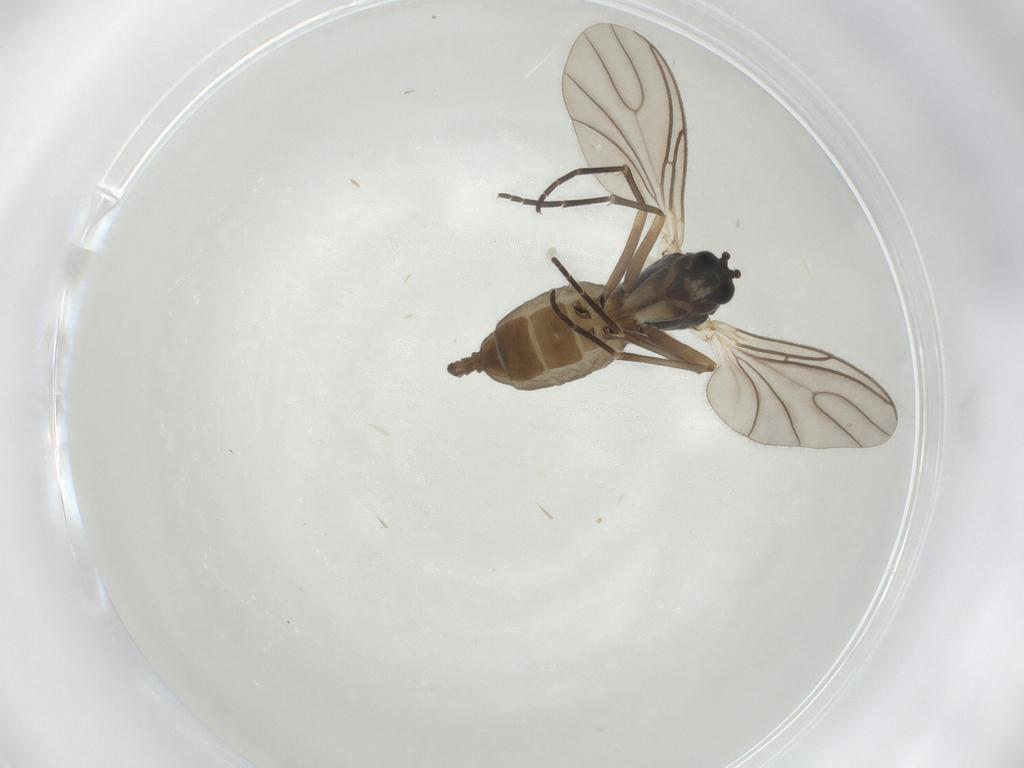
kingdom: Animalia
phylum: Arthropoda
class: Insecta
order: Diptera
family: Sciaridae
